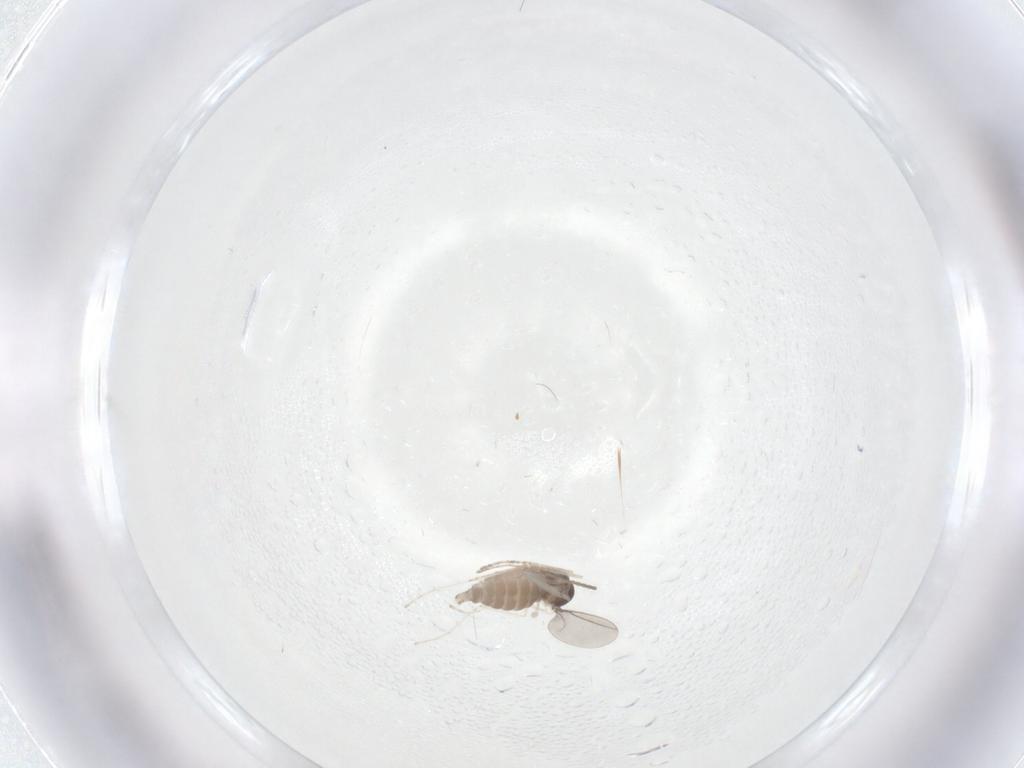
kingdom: Animalia
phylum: Arthropoda
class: Insecta
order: Diptera
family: Cecidomyiidae
